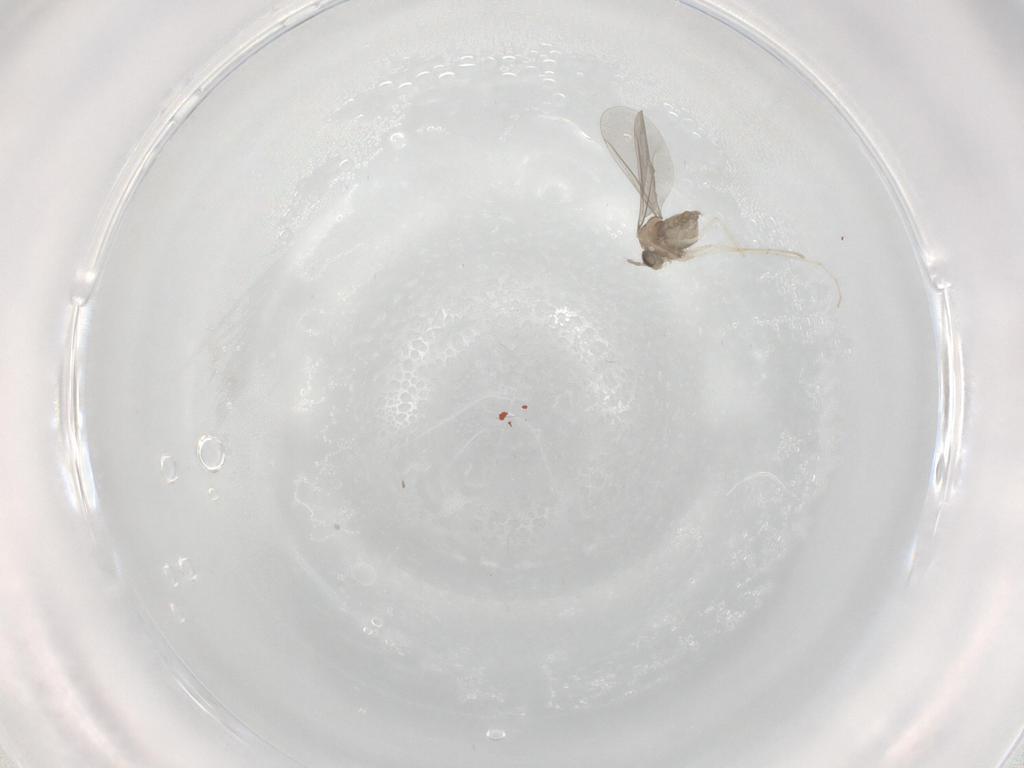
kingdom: Animalia
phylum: Arthropoda
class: Insecta
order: Diptera
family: Cecidomyiidae
